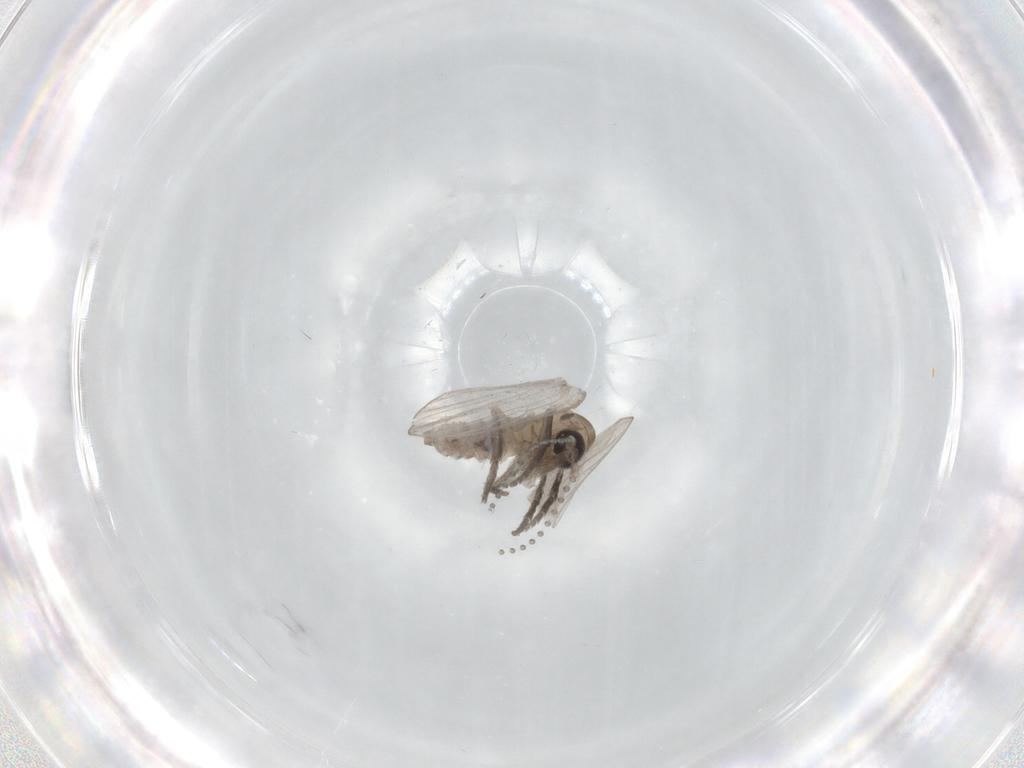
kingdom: Animalia
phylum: Arthropoda
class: Insecta
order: Diptera
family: Psychodidae
